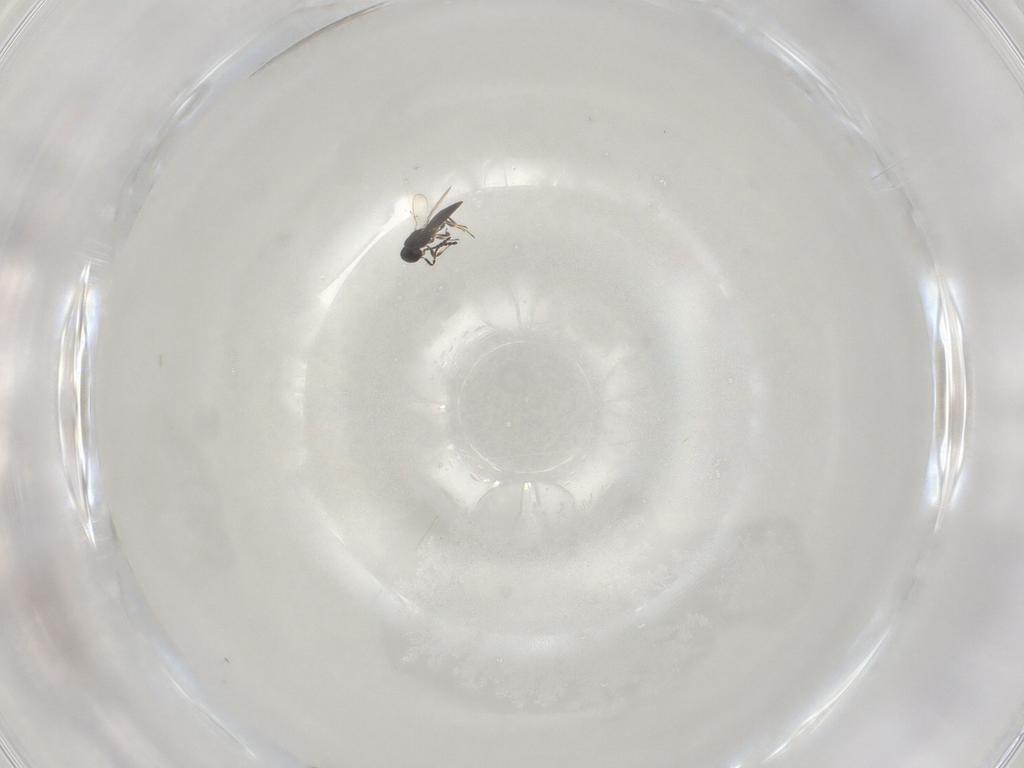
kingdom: Animalia
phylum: Arthropoda
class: Insecta
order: Hymenoptera
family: Scelionidae
